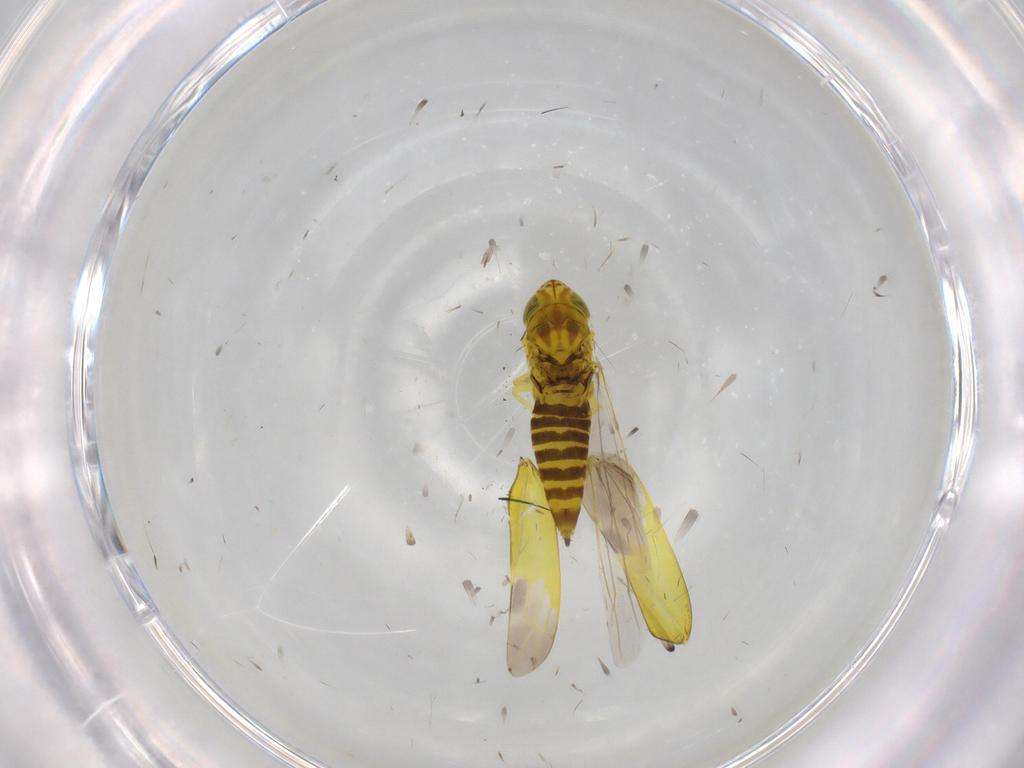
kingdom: Animalia
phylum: Arthropoda
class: Insecta
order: Hemiptera
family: Cicadellidae
